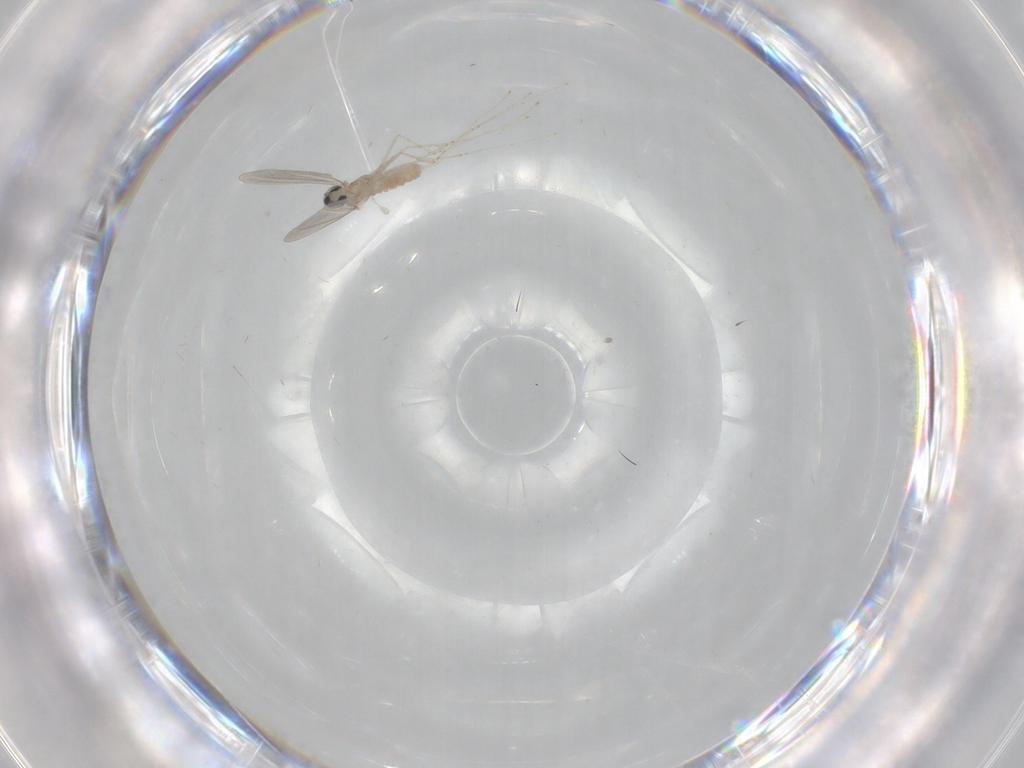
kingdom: Animalia
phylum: Arthropoda
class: Insecta
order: Diptera
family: Cecidomyiidae
